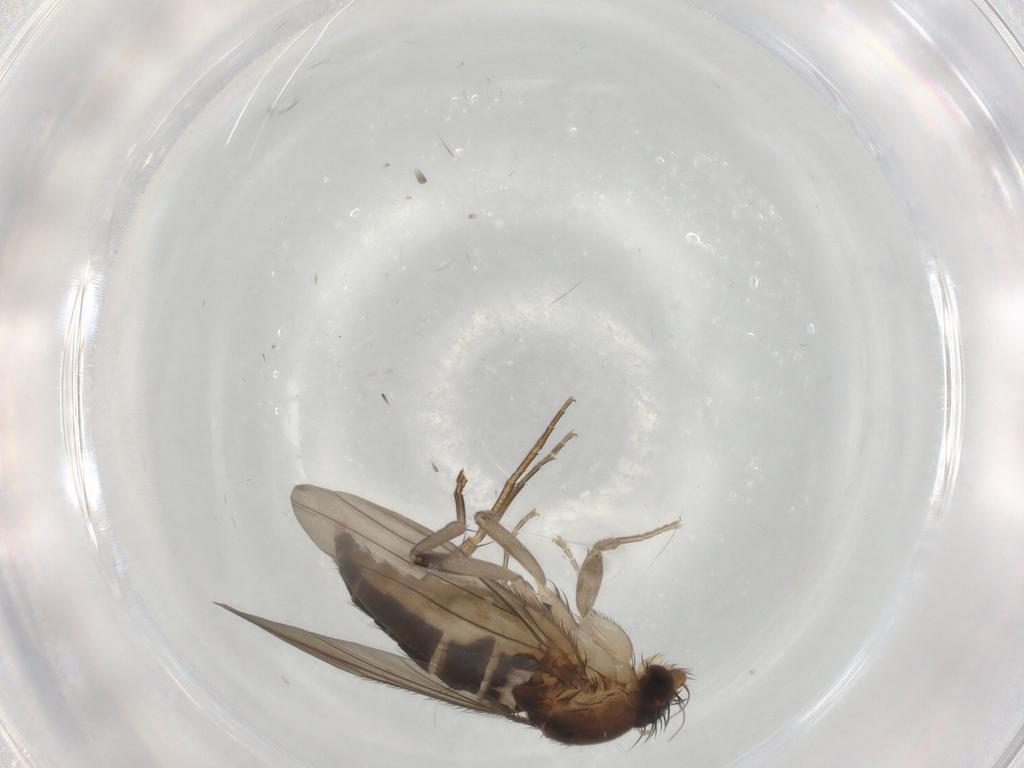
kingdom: Animalia
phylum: Arthropoda
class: Insecta
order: Diptera
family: Phoridae
